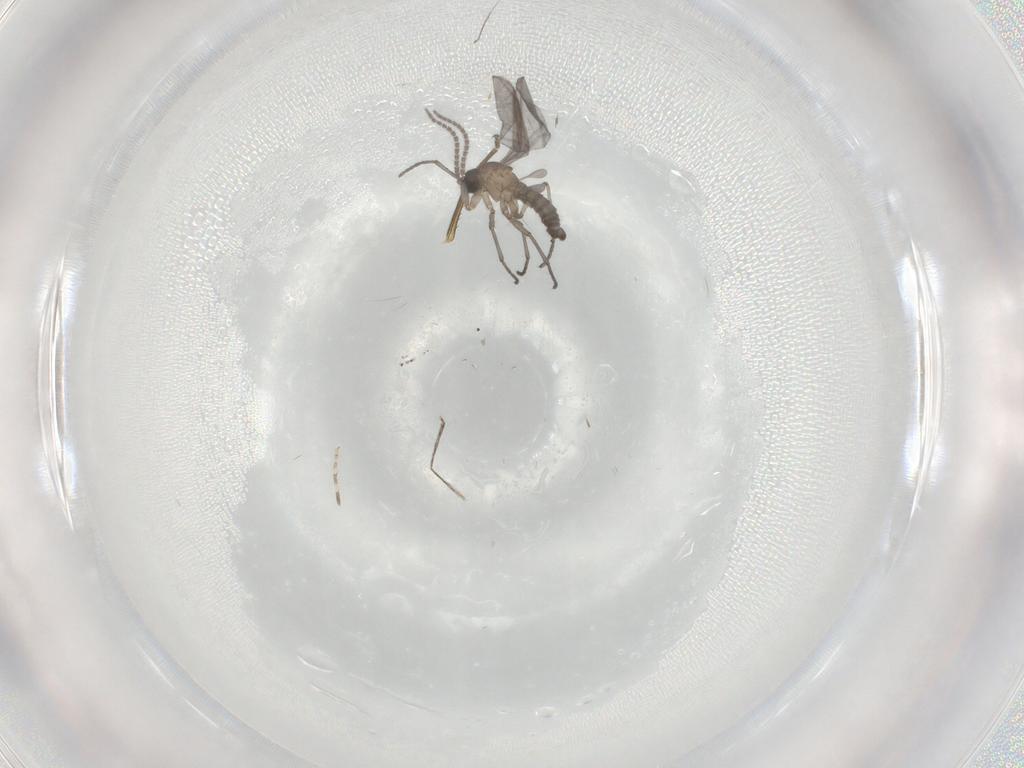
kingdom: Animalia
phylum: Arthropoda
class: Insecta
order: Diptera
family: Sciaridae
